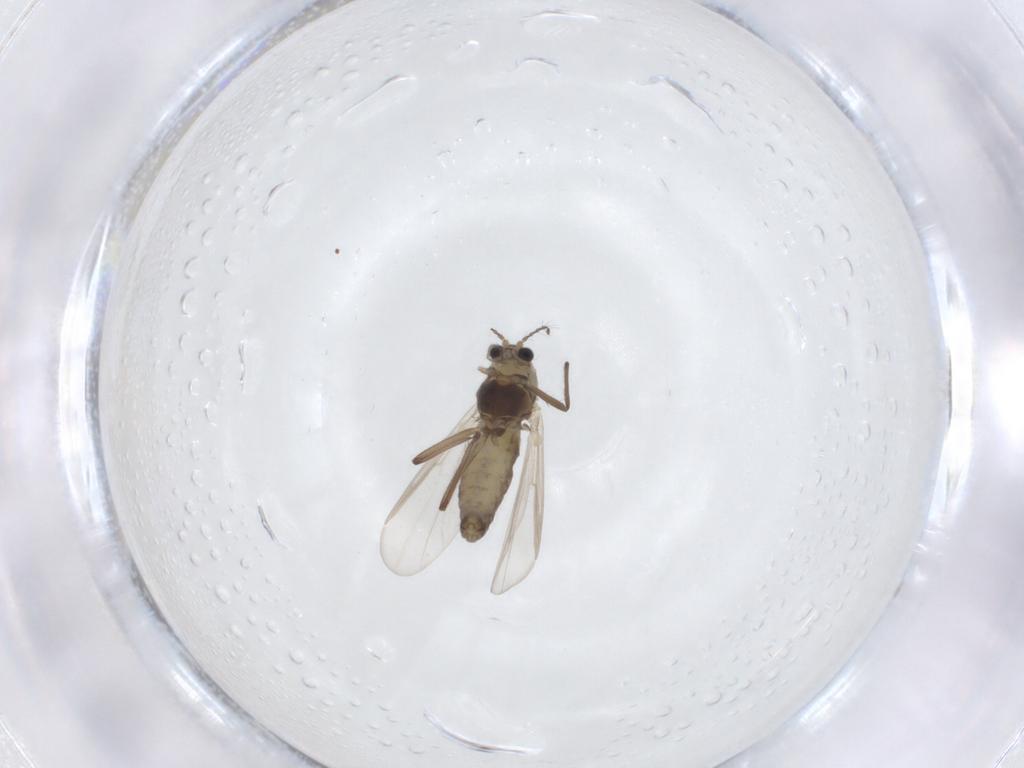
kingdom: Animalia
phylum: Arthropoda
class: Insecta
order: Diptera
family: Chironomidae
